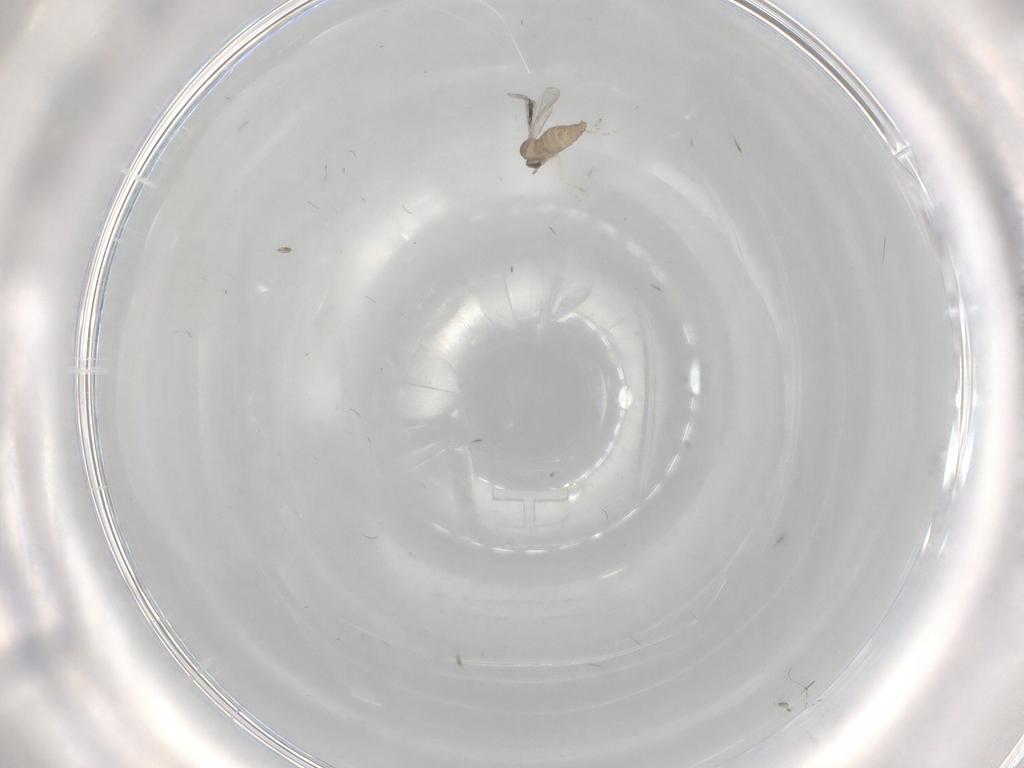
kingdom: Animalia
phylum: Arthropoda
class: Insecta
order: Diptera
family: Cecidomyiidae
